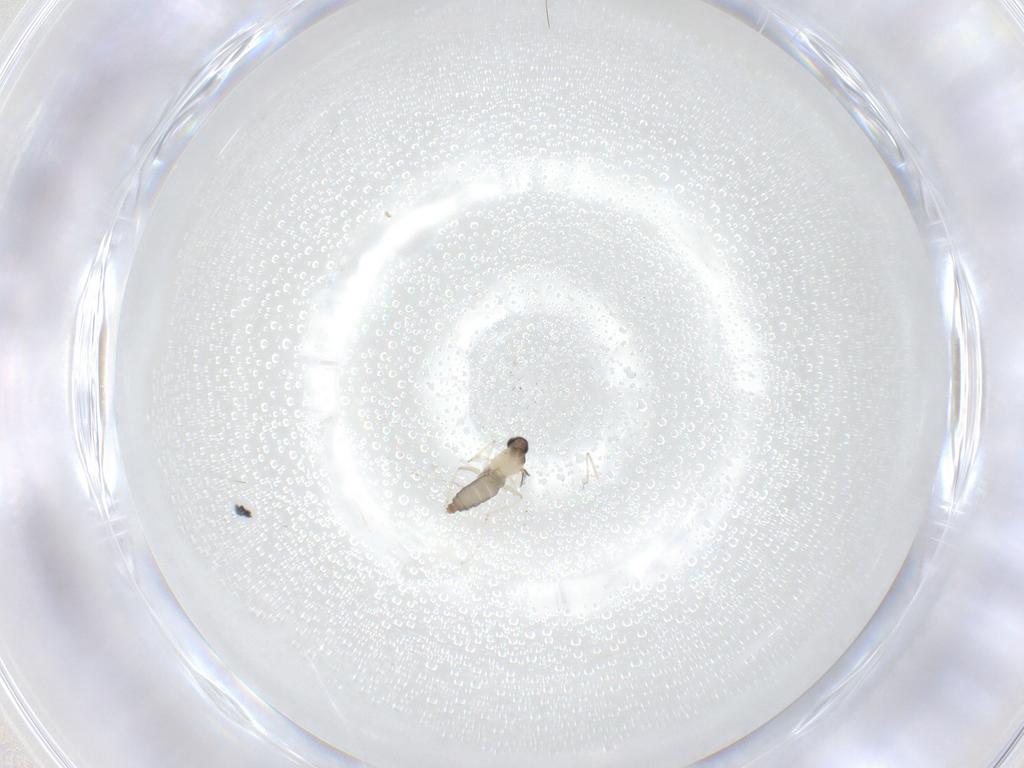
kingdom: Animalia
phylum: Arthropoda
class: Insecta
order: Diptera
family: Cecidomyiidae
